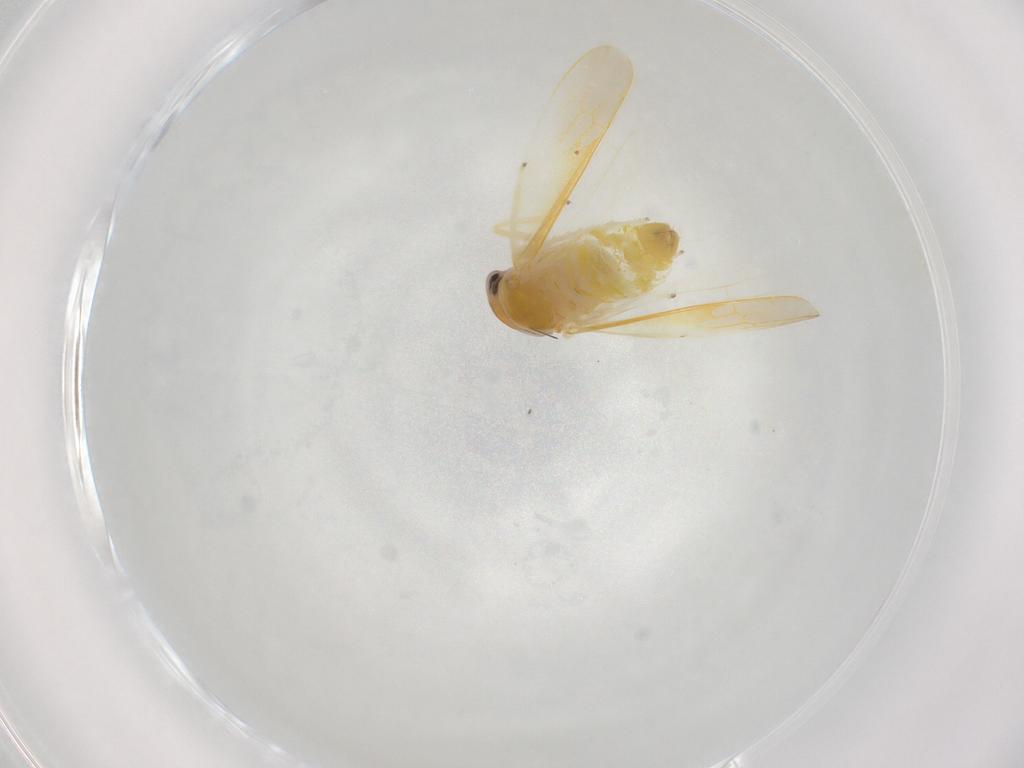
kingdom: Animalia
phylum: Arthropoda
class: Insecta
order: Hemiptera
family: Cicadellidae
